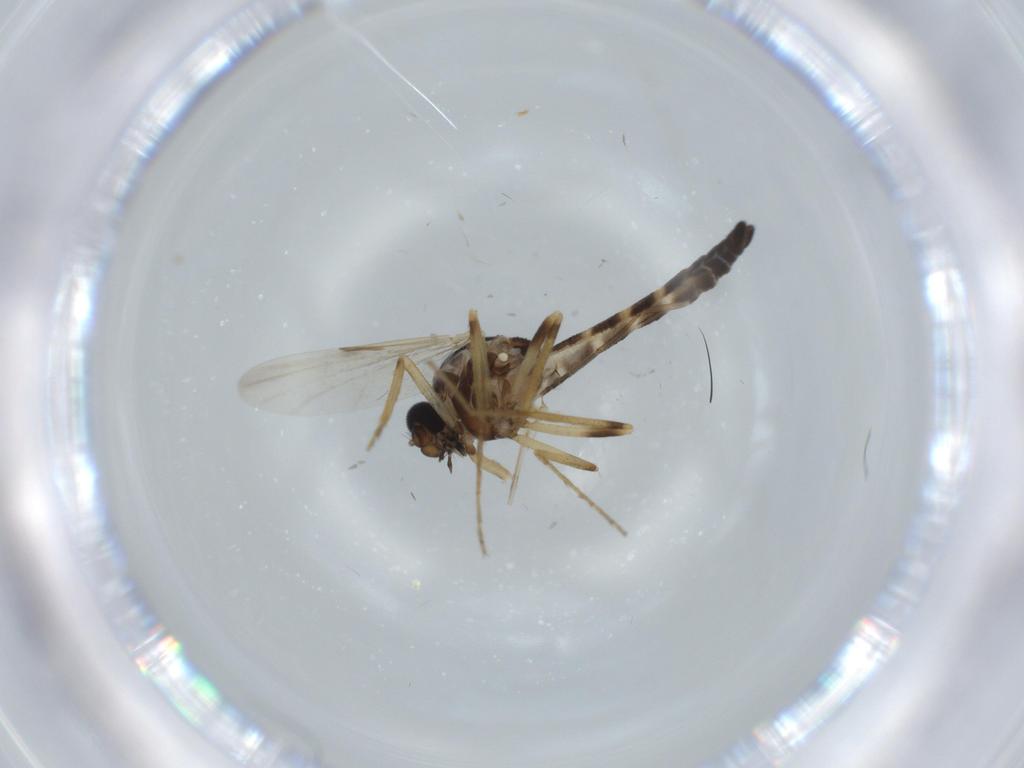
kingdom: Animalia
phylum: Arthropoda
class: Insecta
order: Diptera
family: Ceratopogonidae
